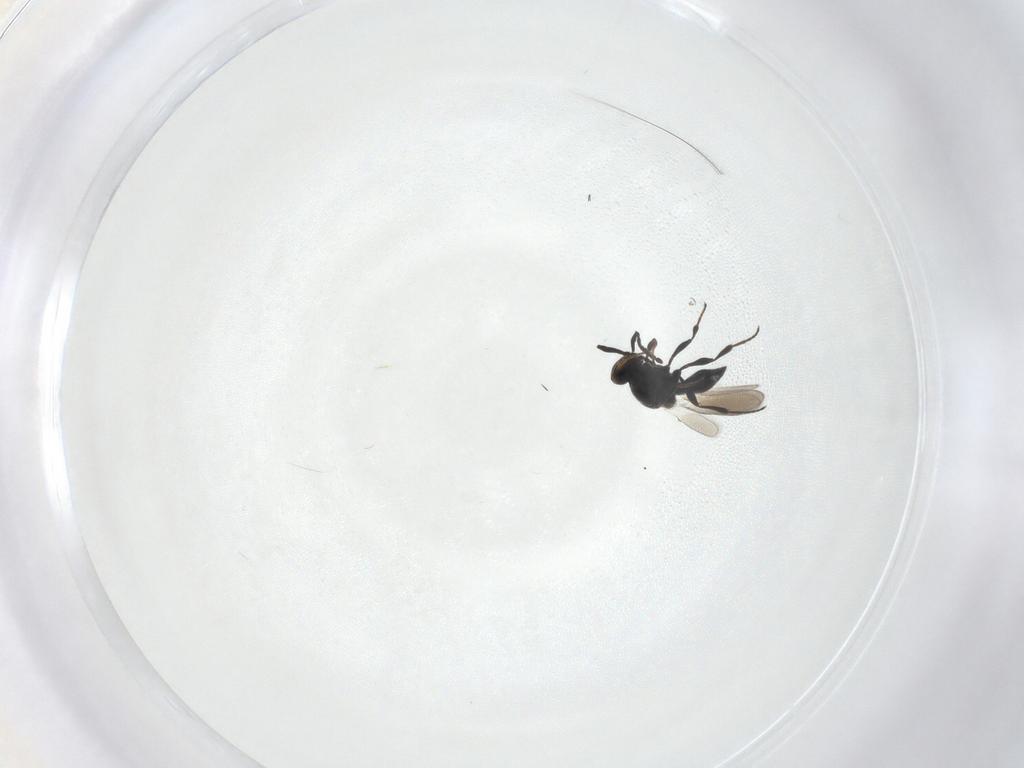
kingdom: Animalia
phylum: Arthropoda
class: Insecta
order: Hymenoptera
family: Platygastridae
